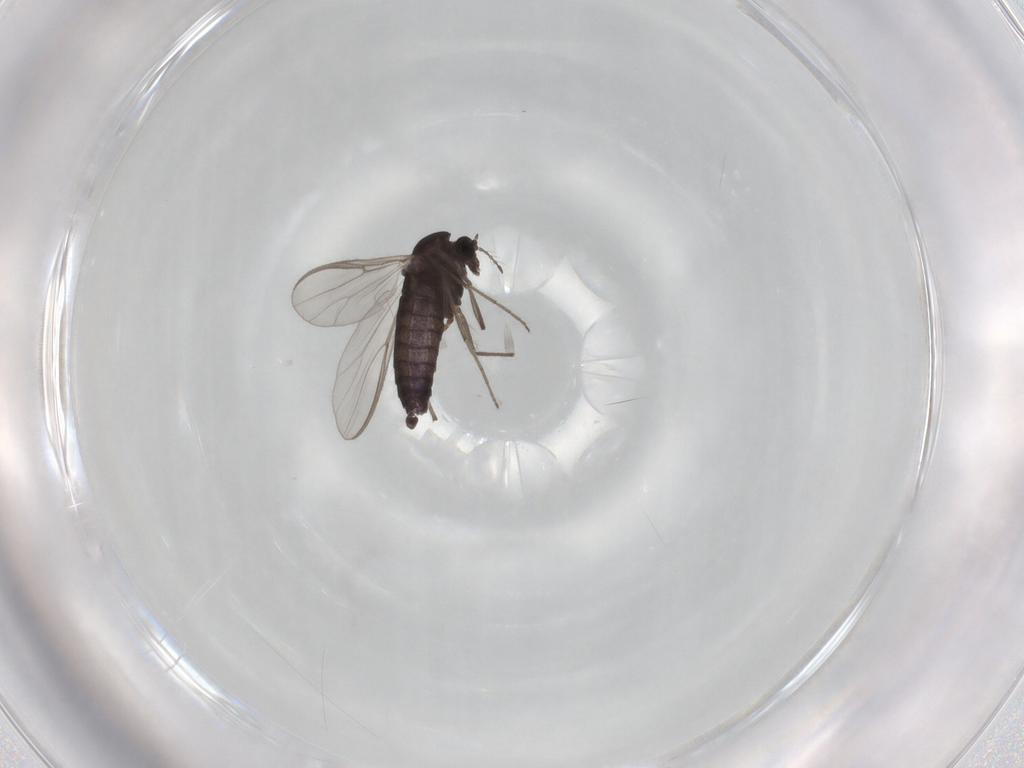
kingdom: Animalia
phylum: Arthropoda
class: Insecta
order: Diptera
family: Chironomidae
